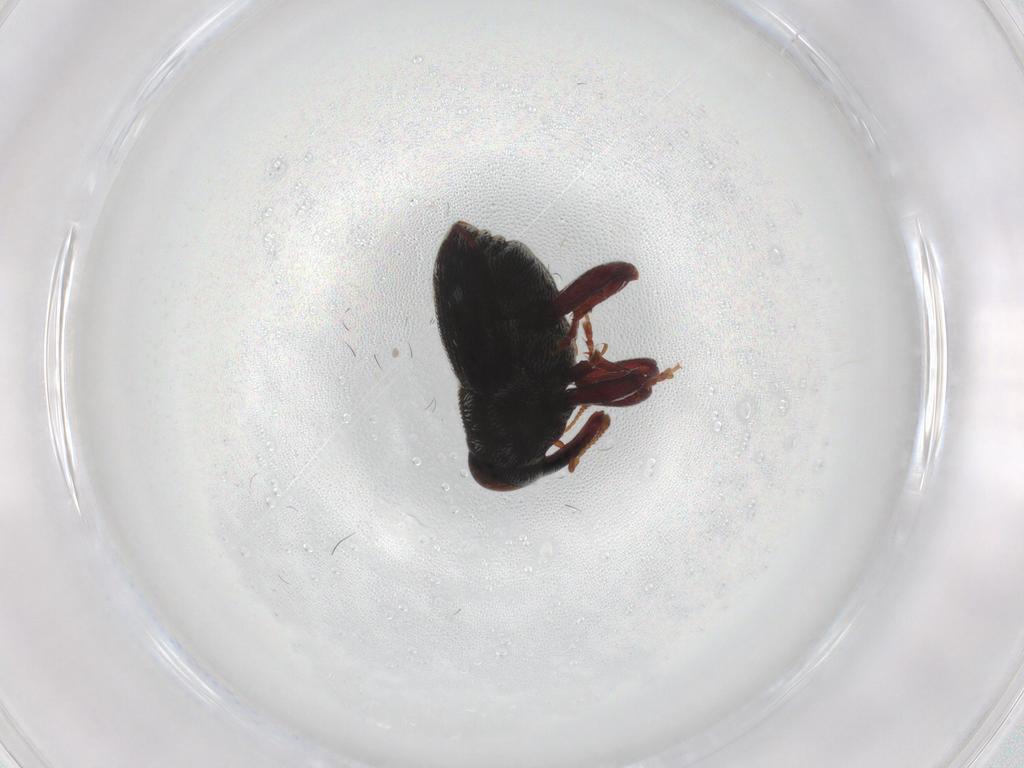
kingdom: Animalia
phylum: Arthropoda
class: Insecta
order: Coleoptera
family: Curculionidae
